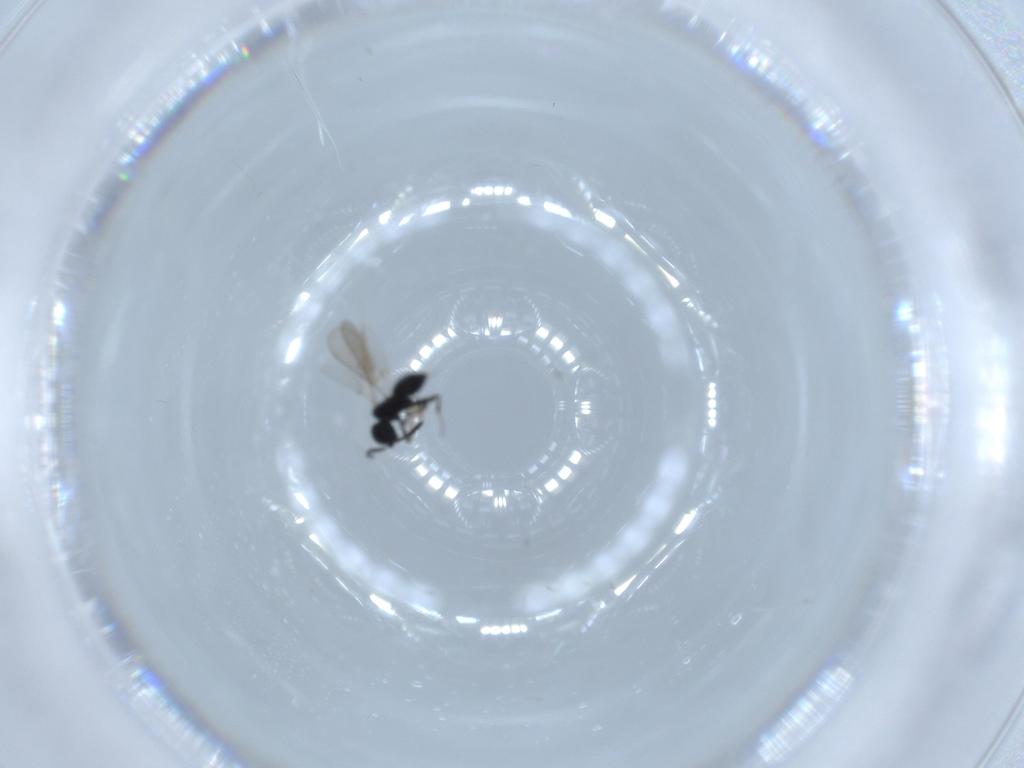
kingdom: Animalia
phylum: Arthropoda
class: Insecta
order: Hymenoptera
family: Scelionidae
